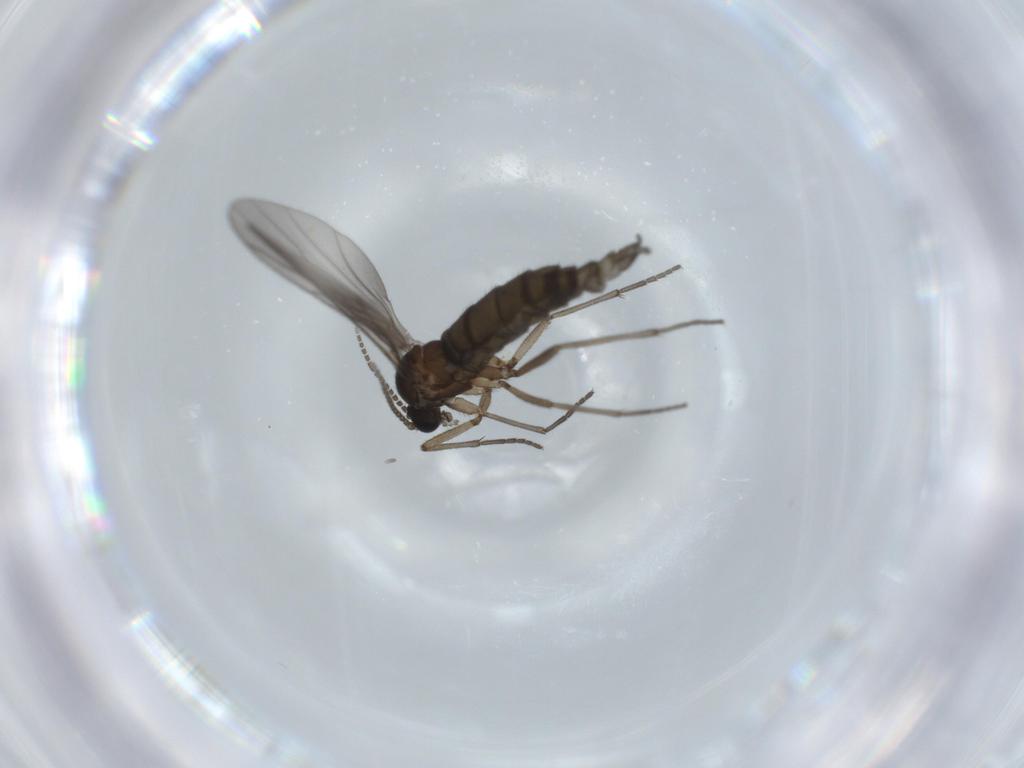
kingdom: Animalia
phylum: Arthropoda
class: Insecta
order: Diptera
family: Sciaridae
